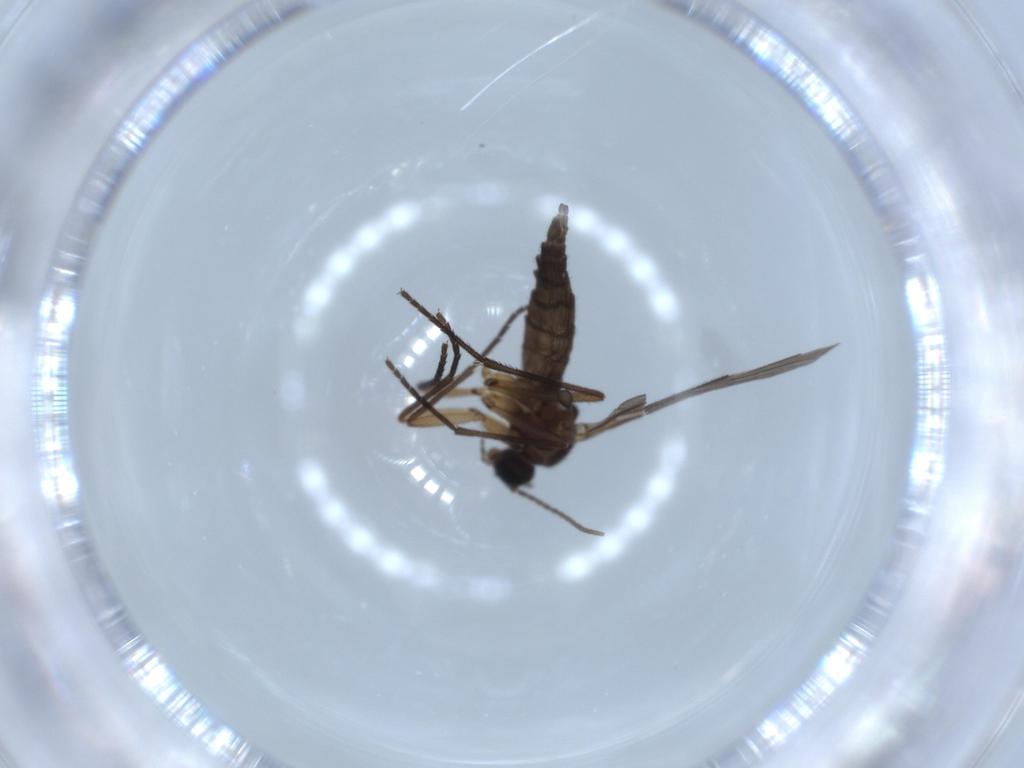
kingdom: Animalia
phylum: Arthropoda
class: Insecta
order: Diptera
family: Sciaridae
